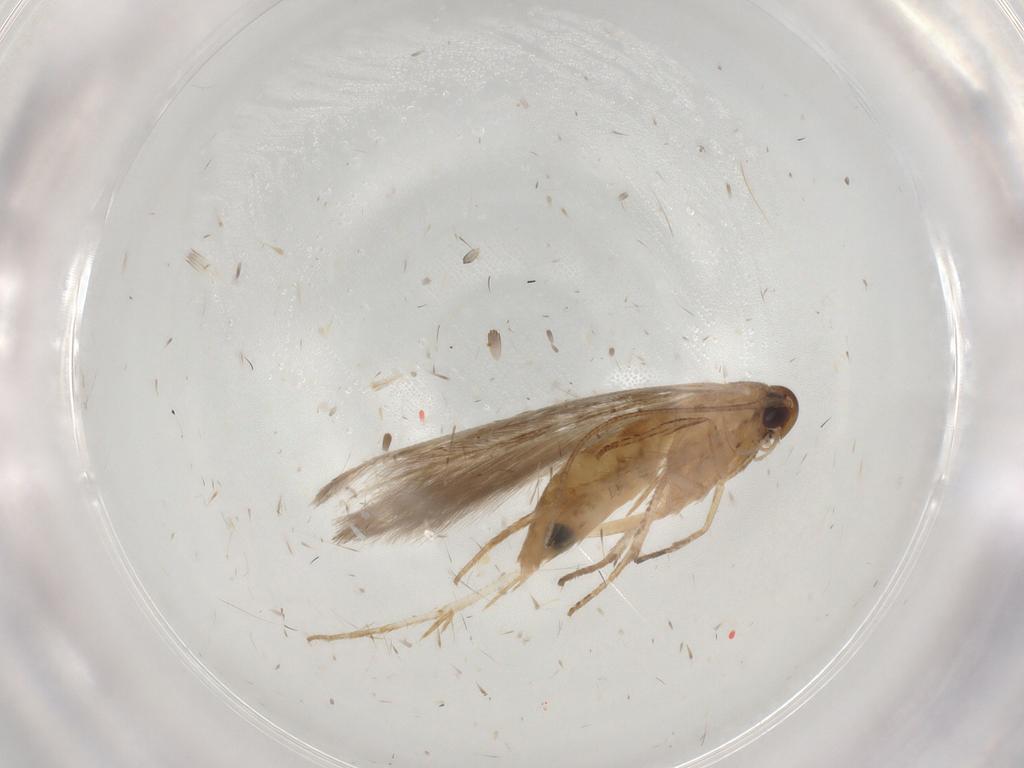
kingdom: Animalia
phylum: Arthropoda
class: Insecta
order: Lepidoptera
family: Cosmopterigidae
